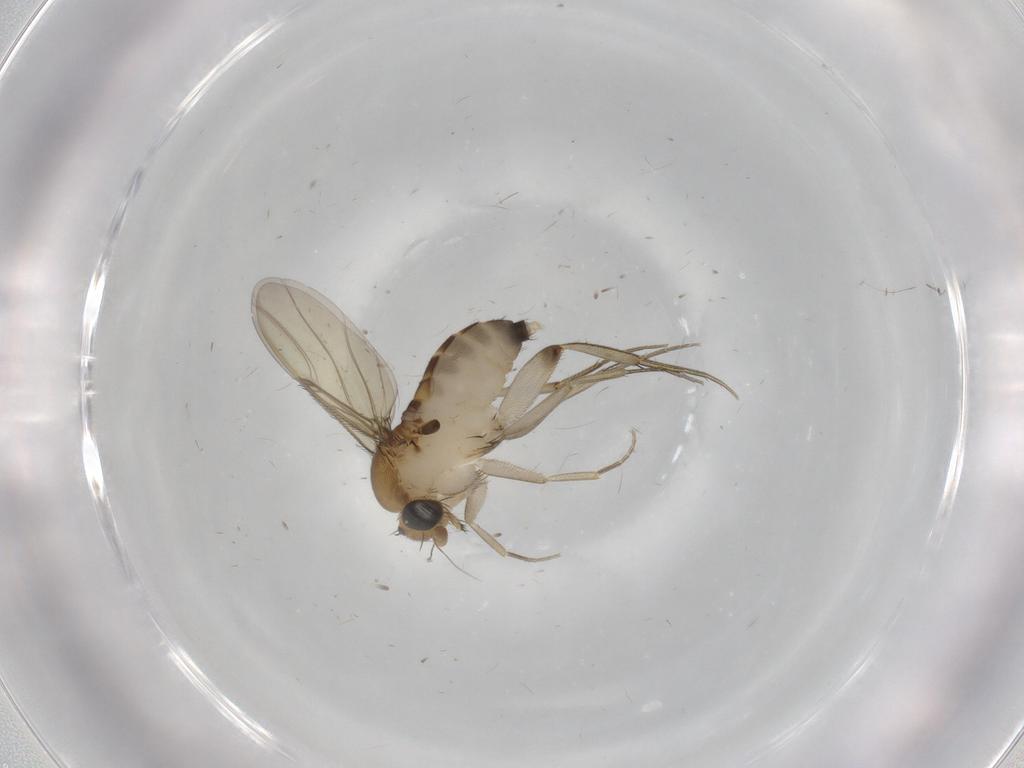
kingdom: Animalia
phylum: Arthropoda
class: Insecta
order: Diptera
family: Phoridae
